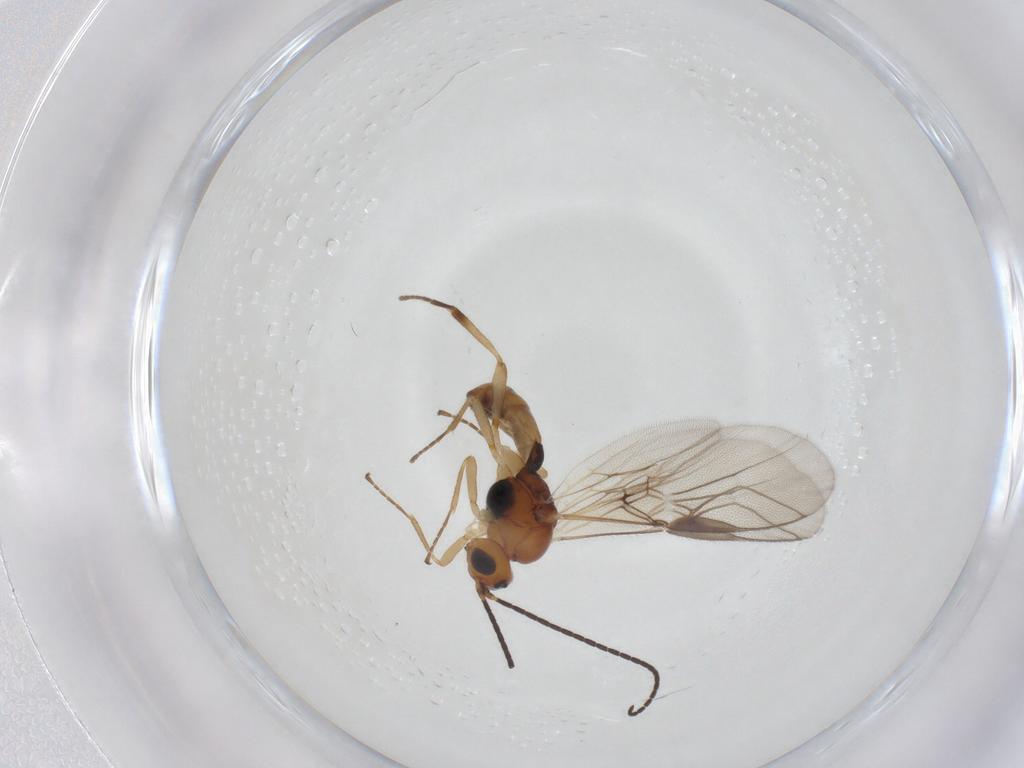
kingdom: Animalia
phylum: Arthropoda
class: Insecta
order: Hymenoptera
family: Braconidae
